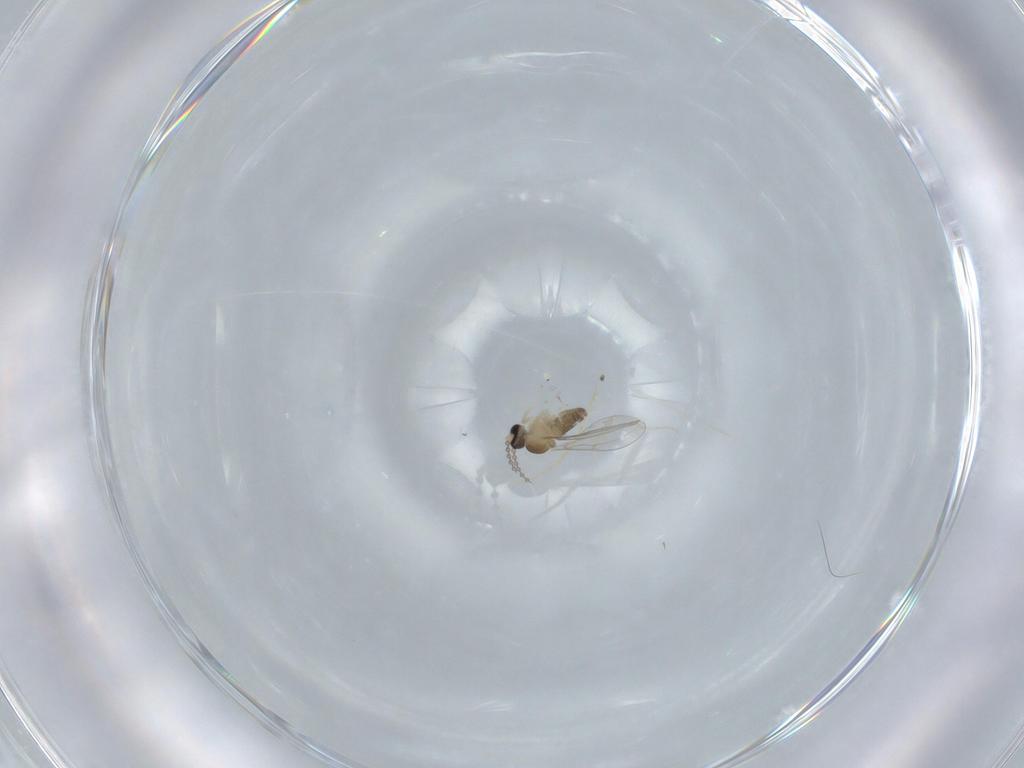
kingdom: Animalia
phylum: Arthropoda
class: Insecta
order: Diptera
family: Cecidomyiidae
